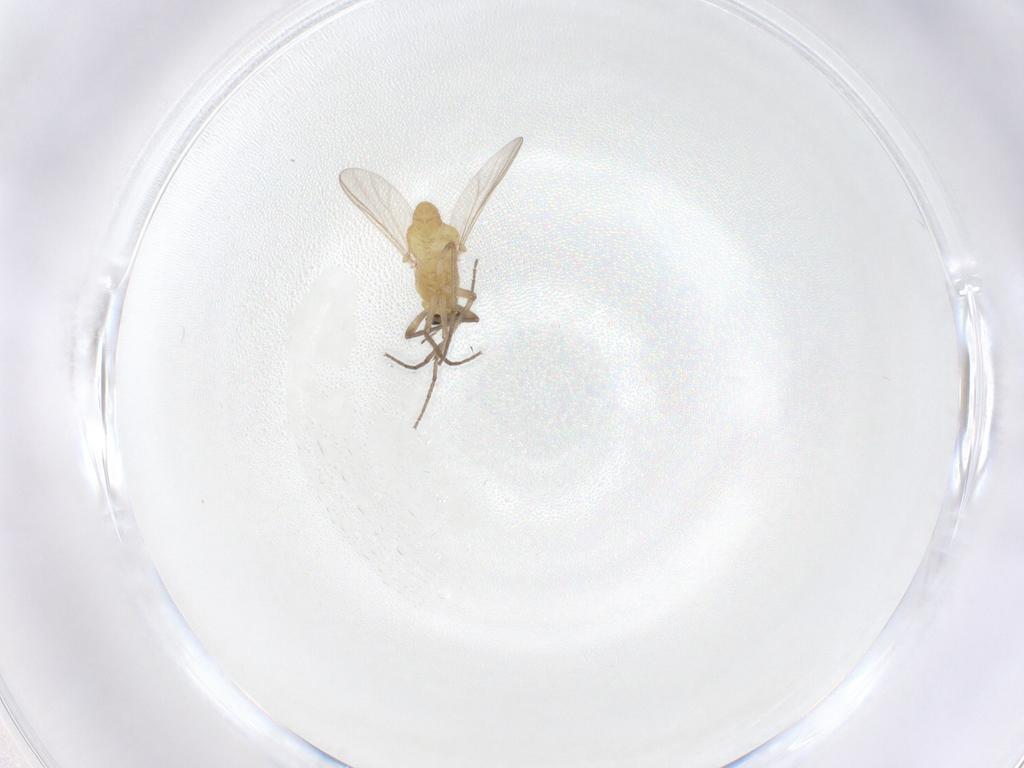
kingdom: Animalia
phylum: Arthropoda
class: Insecta
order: Diptera
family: Chironomidae
